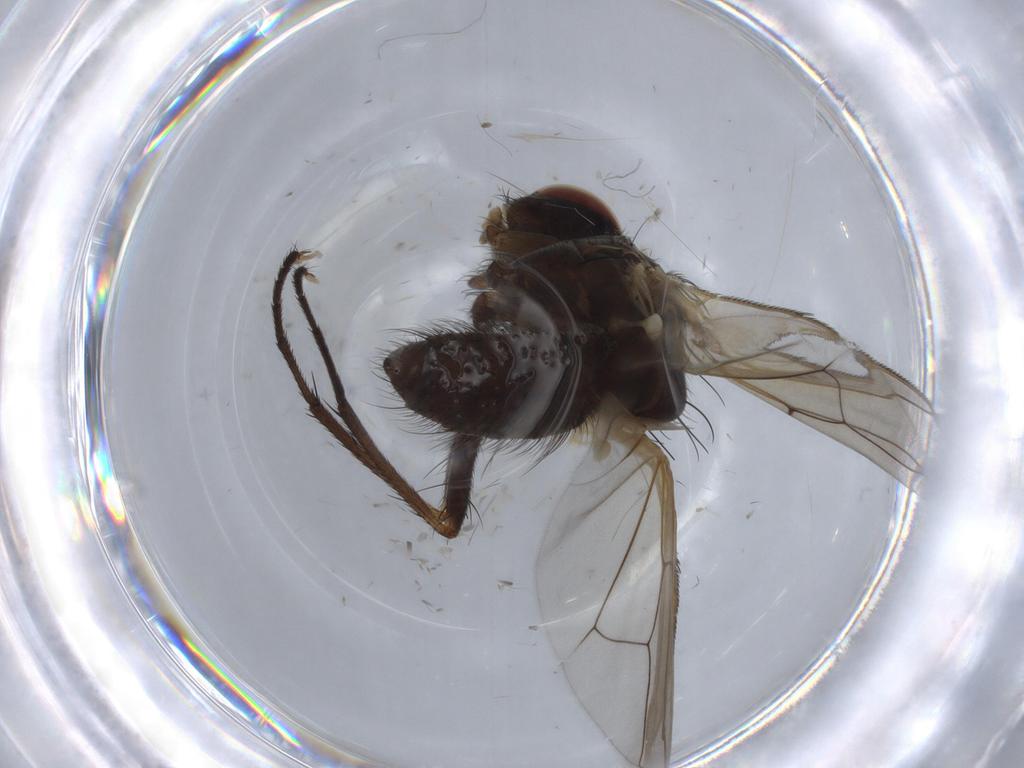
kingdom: Animalia
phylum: Arthropoda
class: Insecta
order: Diptera
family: Anthomyiidae
